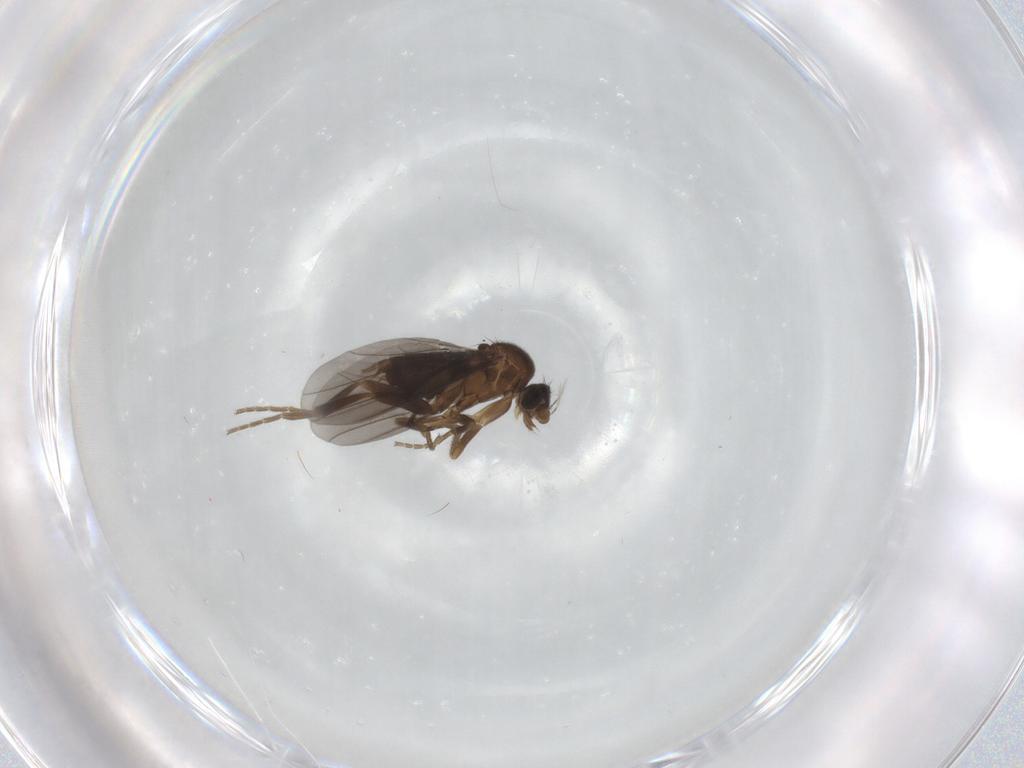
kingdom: Animalia
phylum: Arthropoda
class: Insecta
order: Diptera
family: Phoridae
